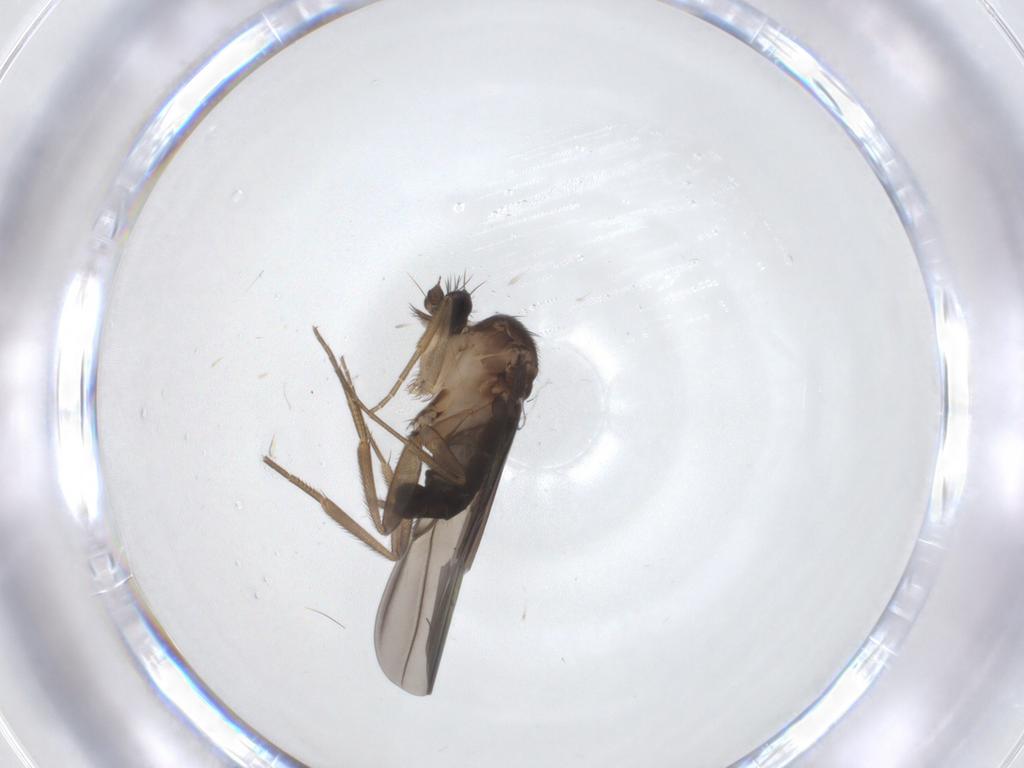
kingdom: Animalia
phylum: Arthropoda
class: Insecta
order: Diptera
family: Phoridae
